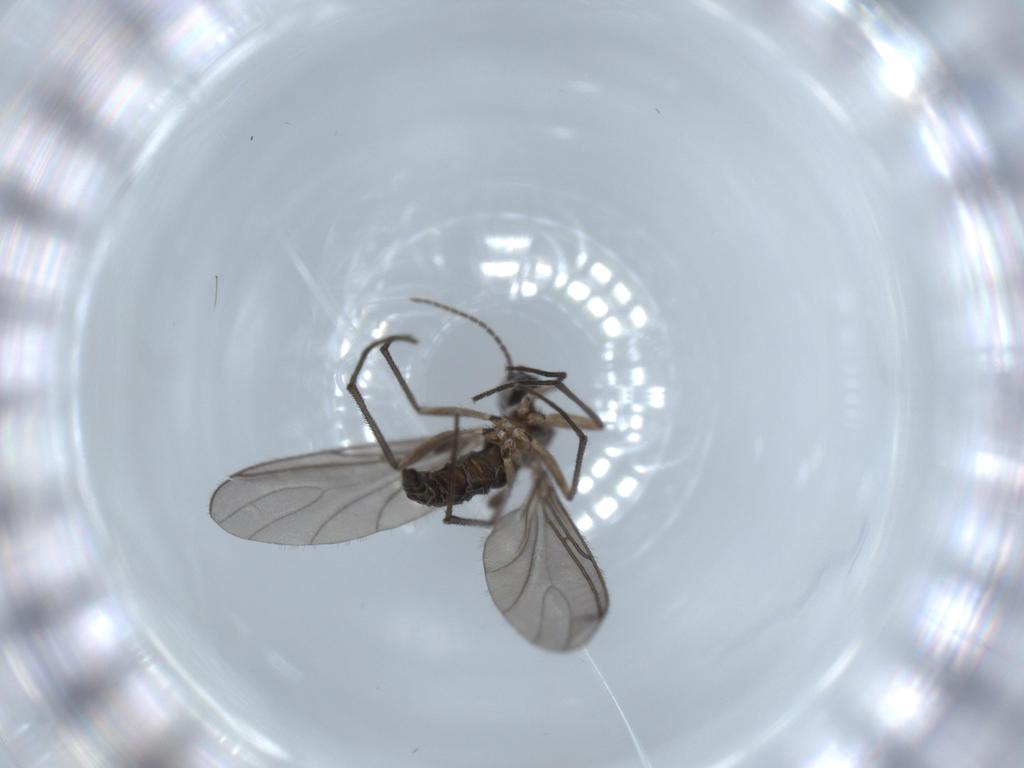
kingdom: Animalia
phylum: Arthropoda
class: Insecta
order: Diptera
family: Sciaridae
